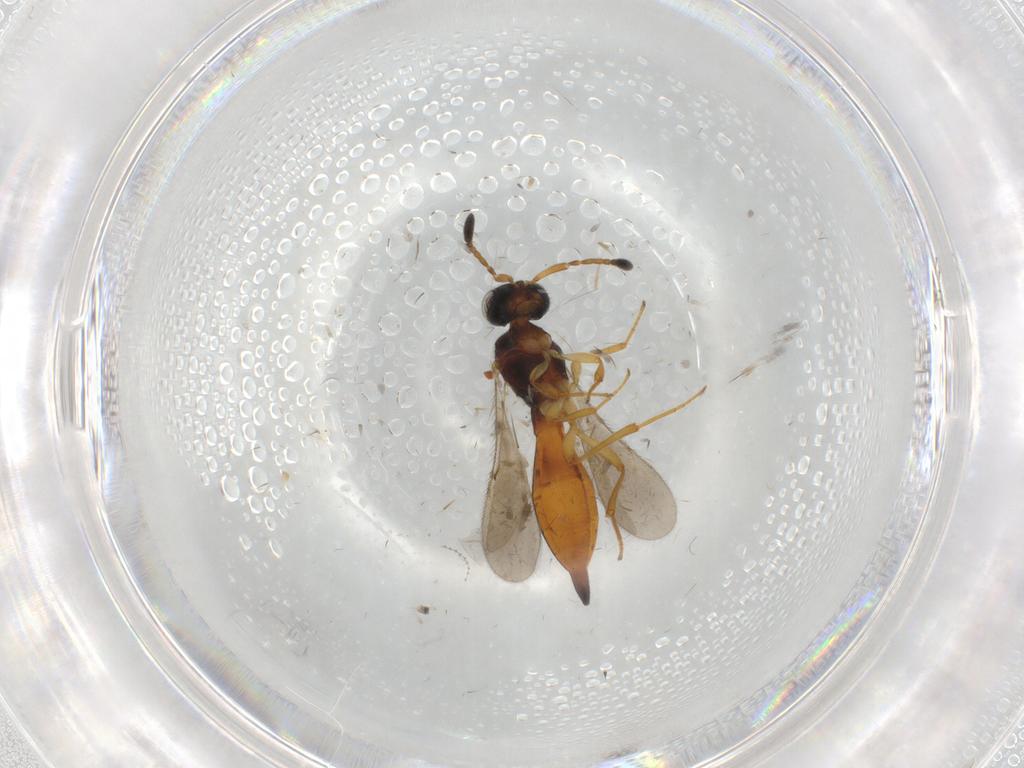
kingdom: Animalia
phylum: Arthropoda
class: Insecta
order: Hymenoptera
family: Scelionidae
